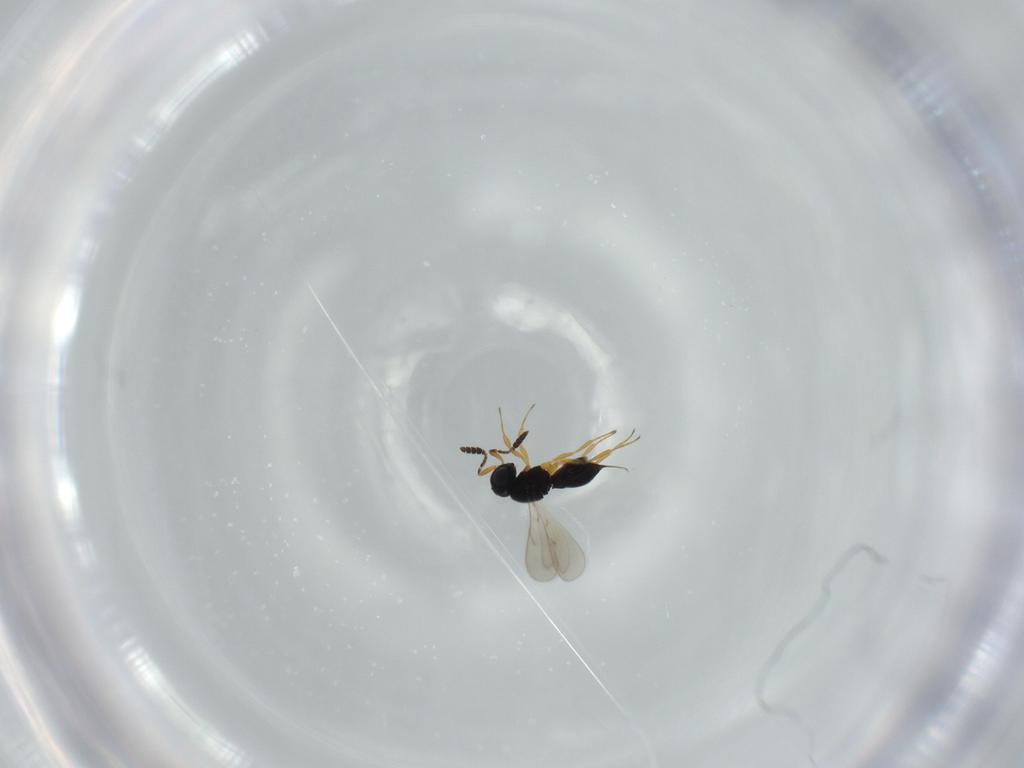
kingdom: Animalia
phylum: Arthropoda
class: Insecta
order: Hymenoptera
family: Scelionidae
